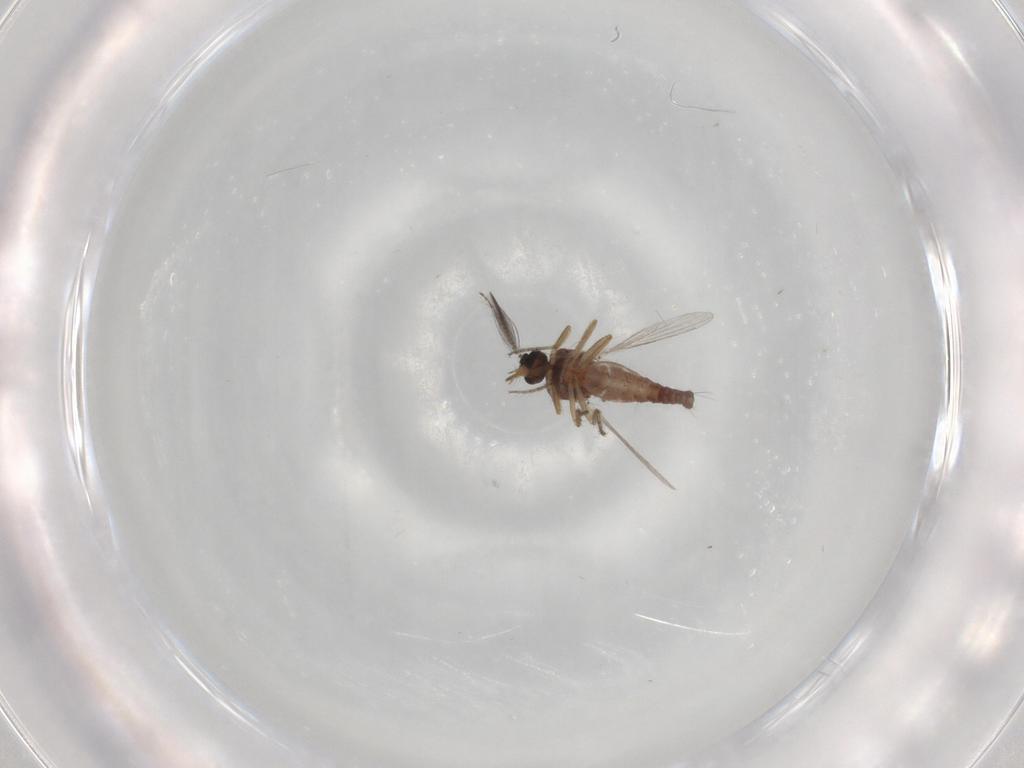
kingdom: Animalia
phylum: Arthropoda
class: Insecta
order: Diptera
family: Ceratopogonidae
